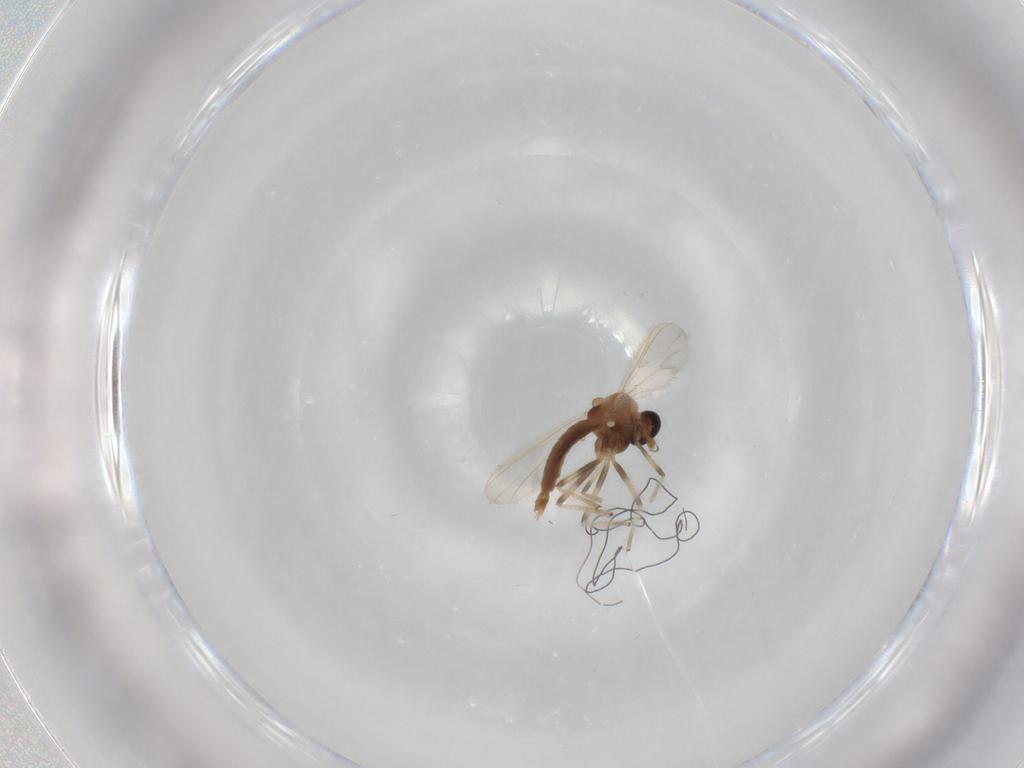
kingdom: Animalia
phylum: Arthropoda
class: Insecta
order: Diptera
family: Chironomidae
